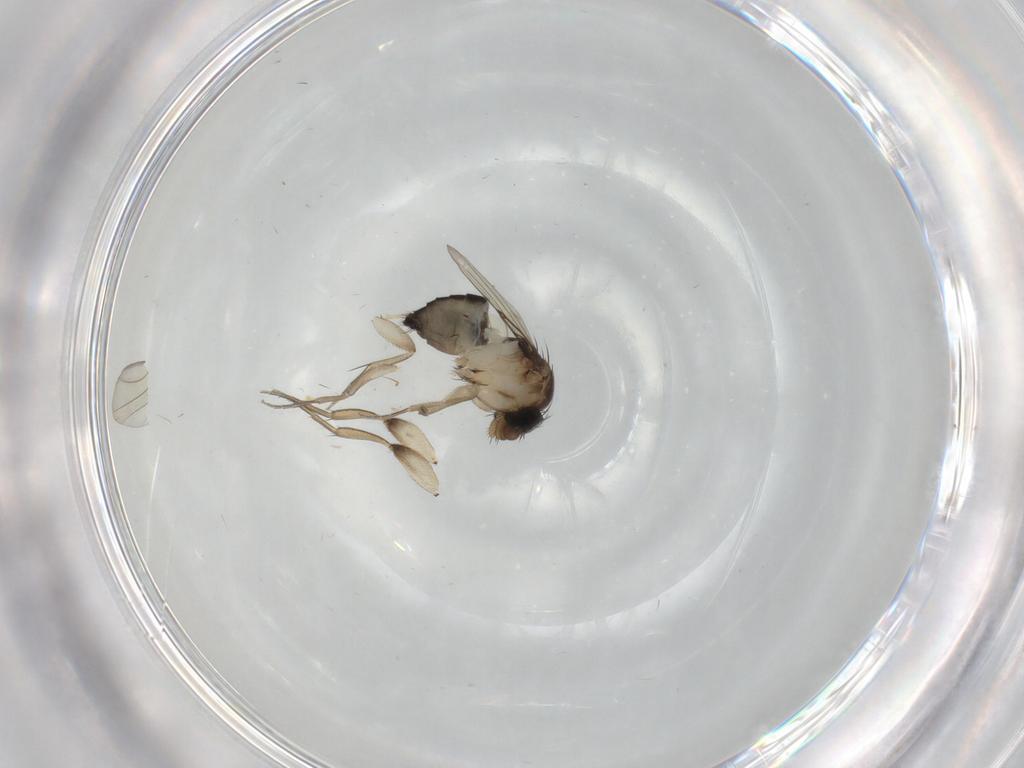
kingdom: Animalia
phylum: Arthropoda
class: Insecta
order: Diptera
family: Phoridae
